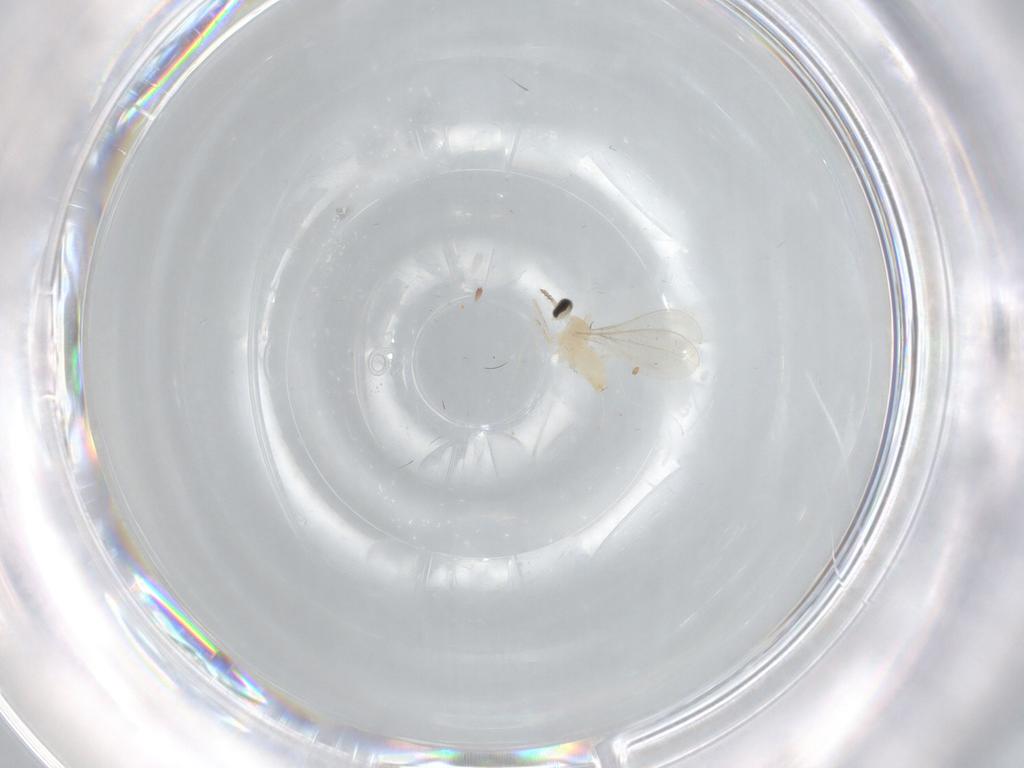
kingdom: Animalia
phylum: Arthropoda
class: Insecta
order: Diptera
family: Cecidomyiidae
